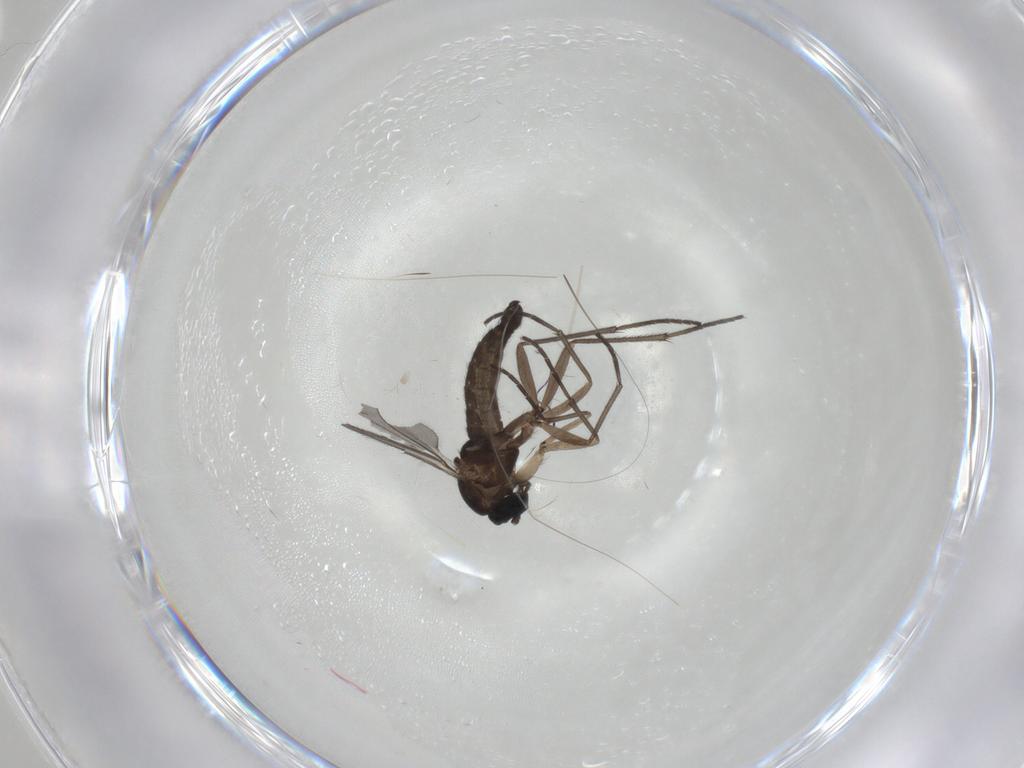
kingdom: Animalia
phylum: Arthropoda
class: Insecta
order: Diptera
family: Sciaridae
